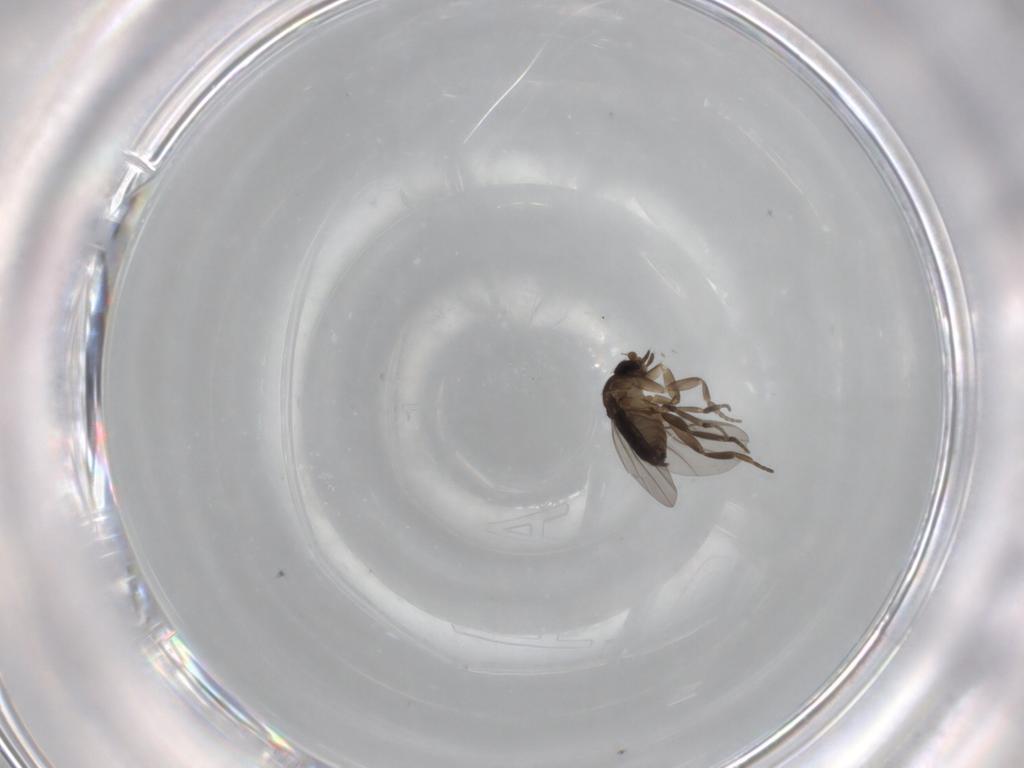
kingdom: Animalia
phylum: Arthropoda
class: Insecta
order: Diptera
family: Phoridae
